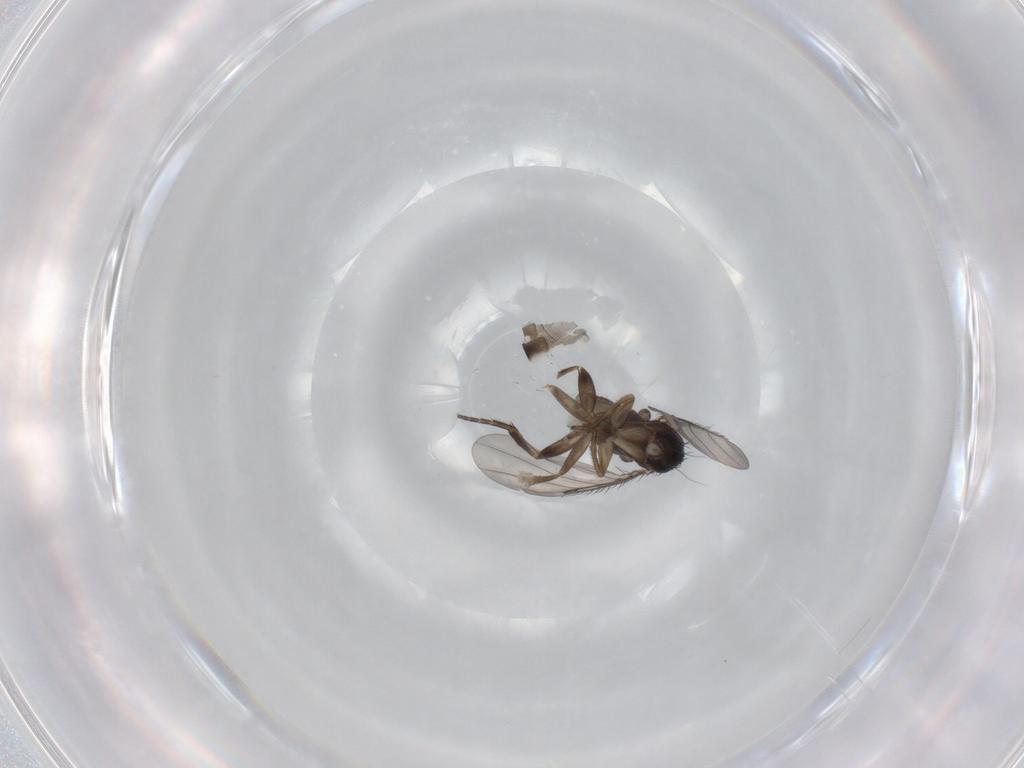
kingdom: Animalia
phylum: Arthropoda
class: Insecta
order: Diptera
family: Phoridae
